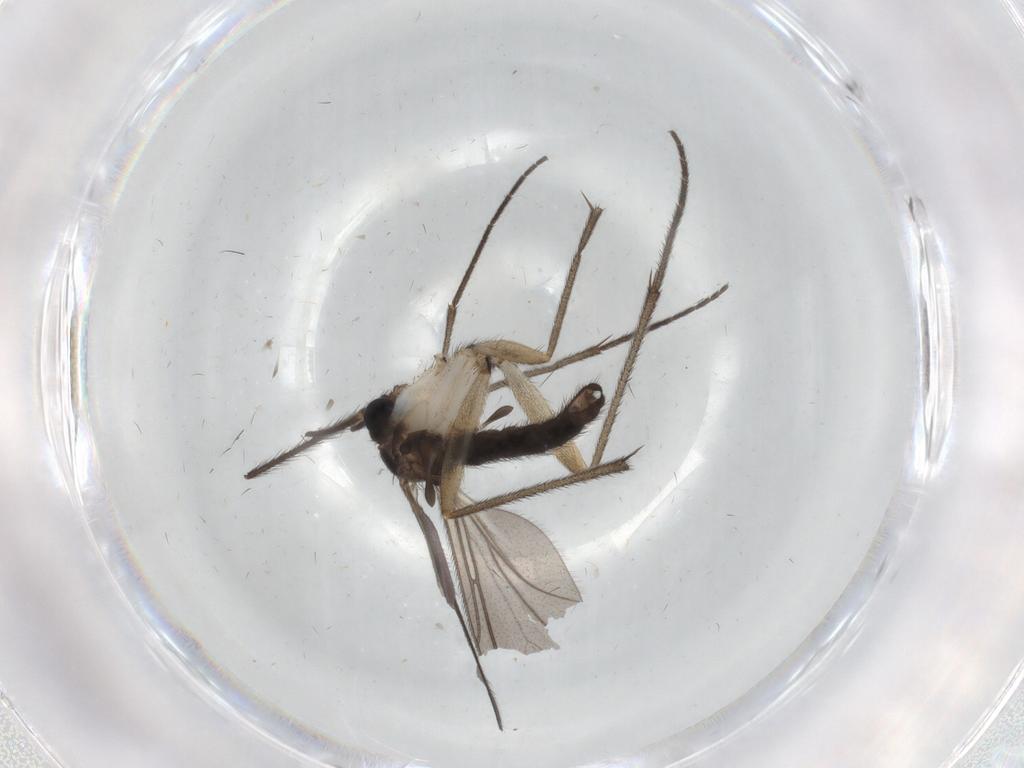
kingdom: Animalia
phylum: Arthropoda
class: Insecta
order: Diptera
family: Sciaridae
